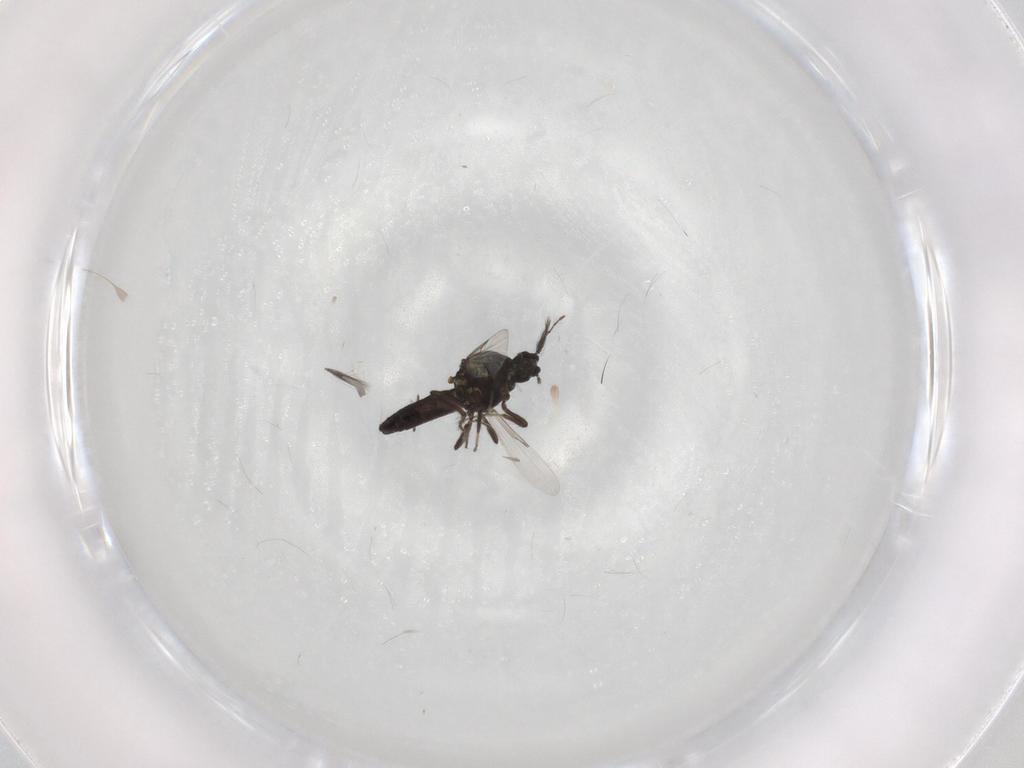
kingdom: Animalia
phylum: Arthropoda
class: Insecta
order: Diptera
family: Ceratopogonidae
